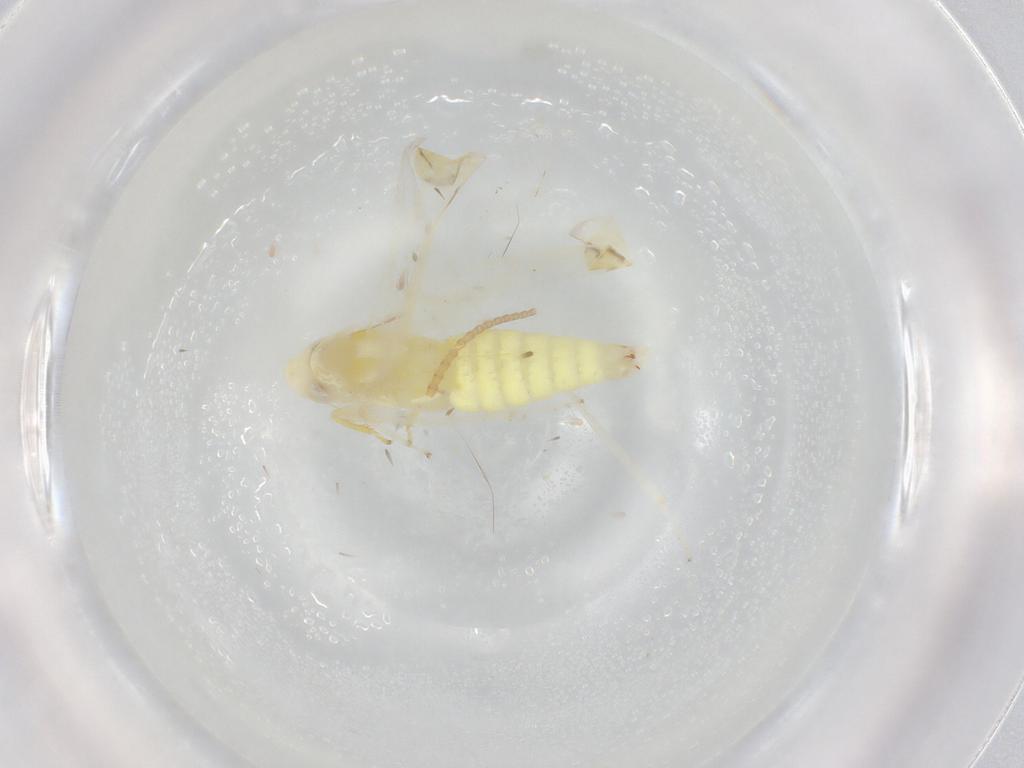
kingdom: Animalia
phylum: Arthropoda
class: Insecta
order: Hemiptera
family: Cicadellidae
